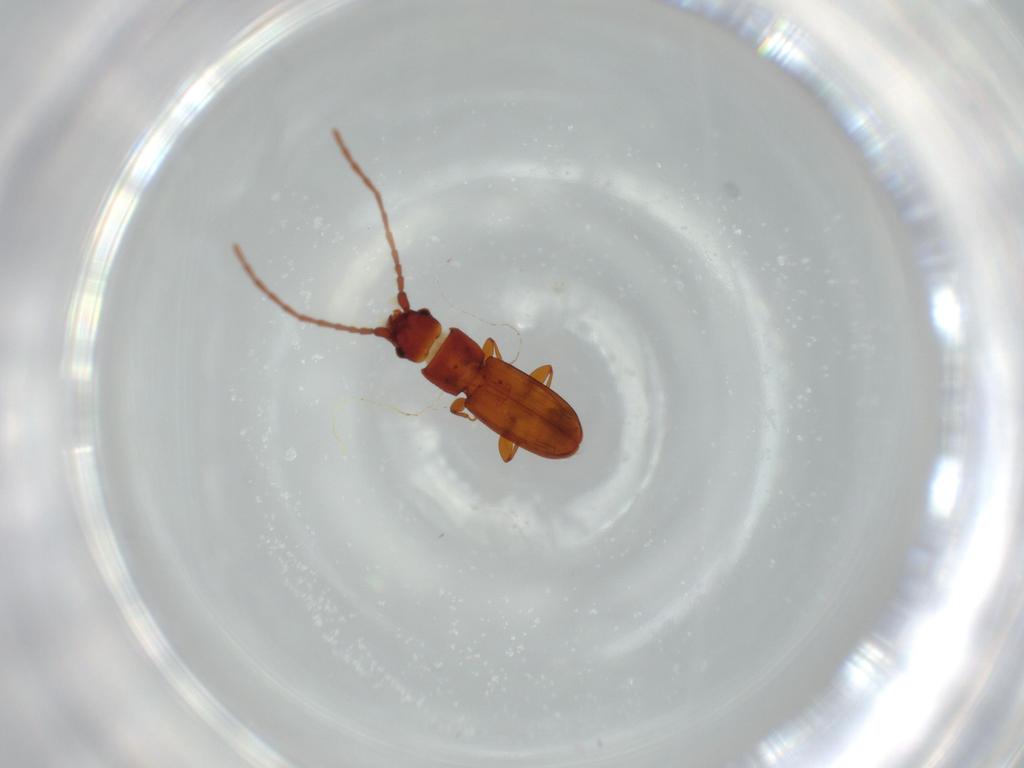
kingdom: Animalia
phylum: Arthropoda
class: Insecta
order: Coleoptera
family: Laemophloeidae
